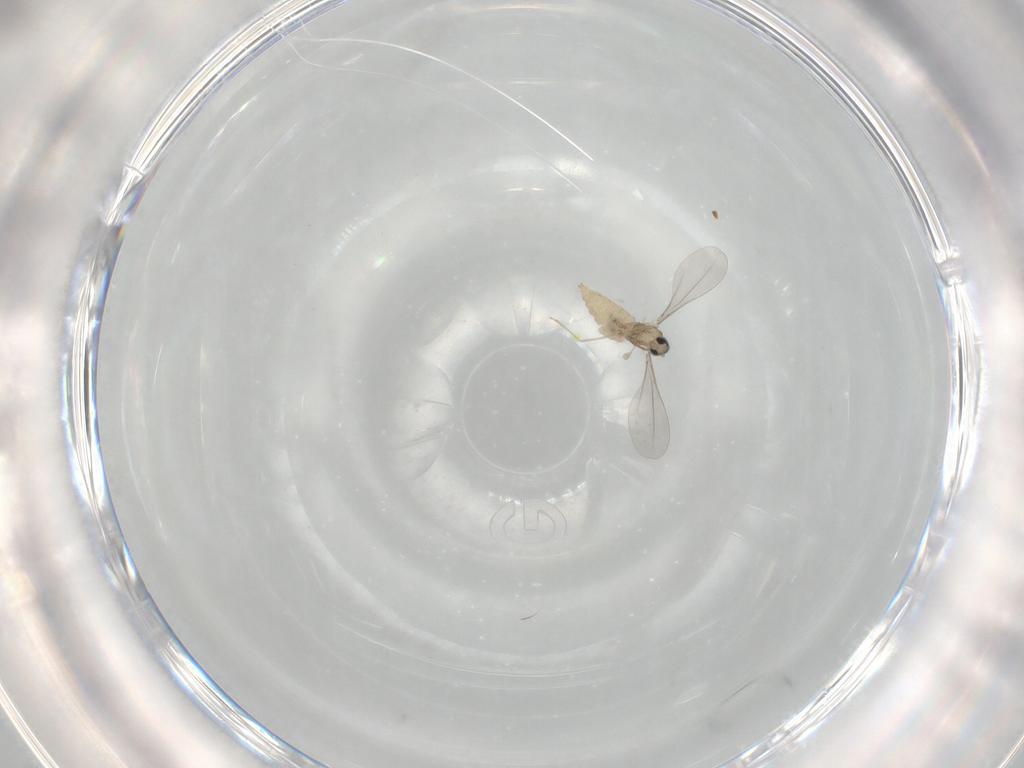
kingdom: Animalia
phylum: Arthropoda
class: Insecta
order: Diptera
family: Cecidomyiidae
